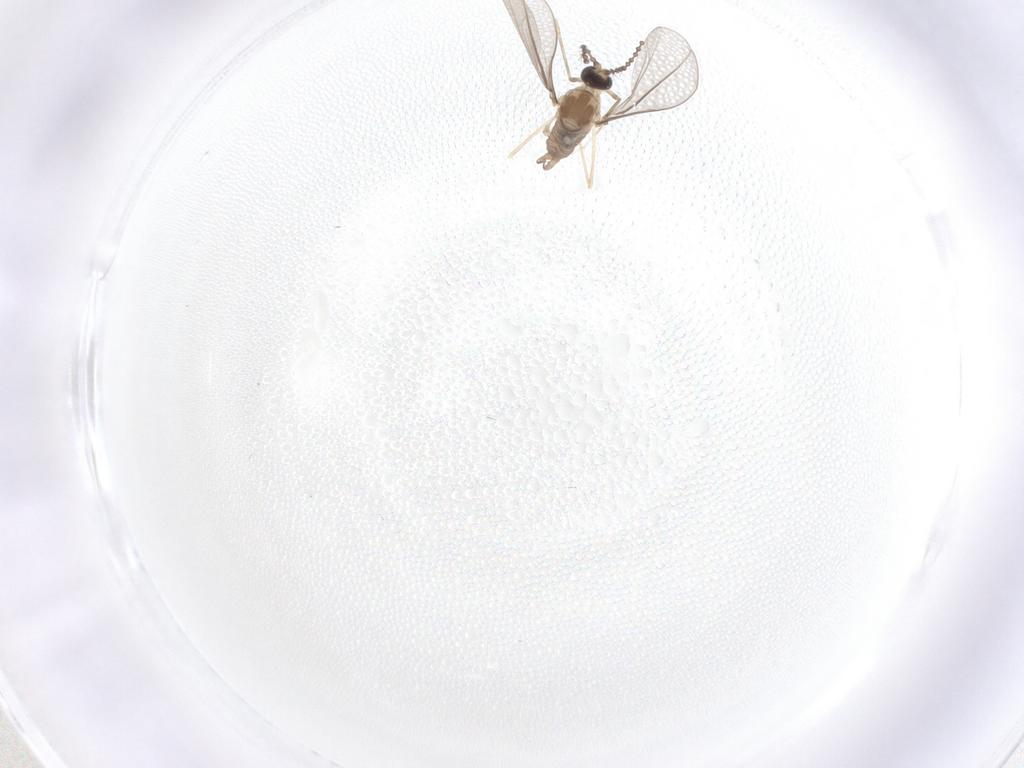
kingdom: Animalia
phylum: Arthropoda
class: Insecta
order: Diptera
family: Cecidomyiidae
